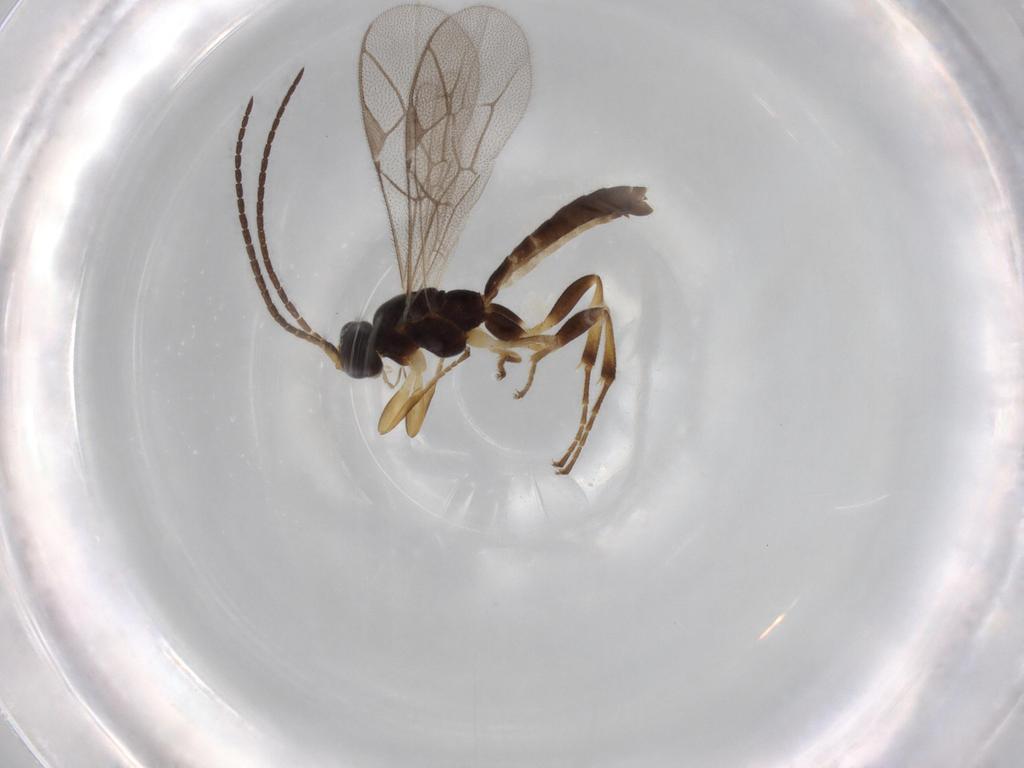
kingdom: Animalia
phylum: Arthropoda
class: Insecta
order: Hymenoptera
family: Ichneumonidae
